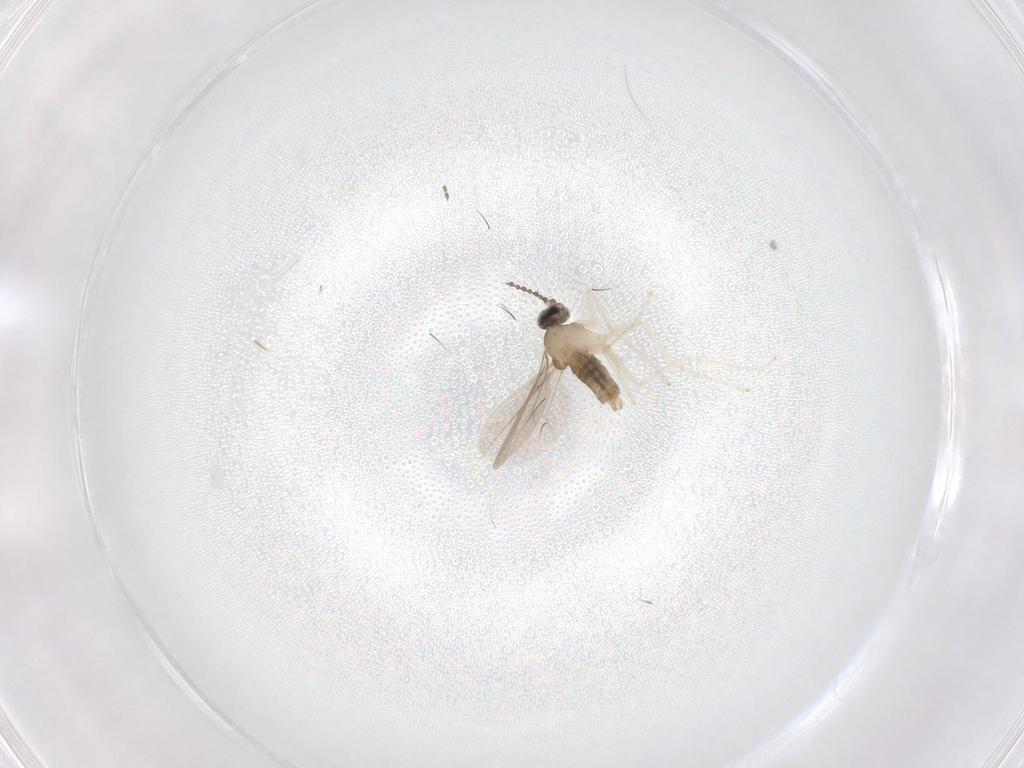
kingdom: Animalia
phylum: Arthropoda
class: Insecta
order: Diptera
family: Cecidomyiidae
